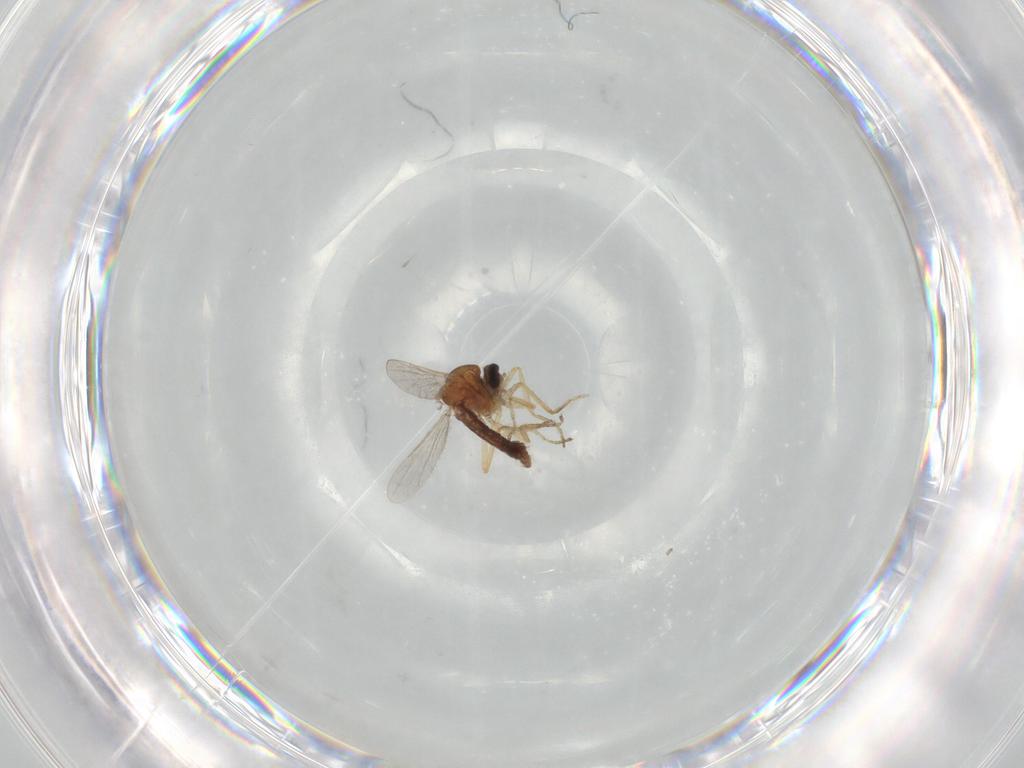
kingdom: Animalia
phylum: Arthropoda
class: Insecta
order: Diptera
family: Ceratopogonidae
